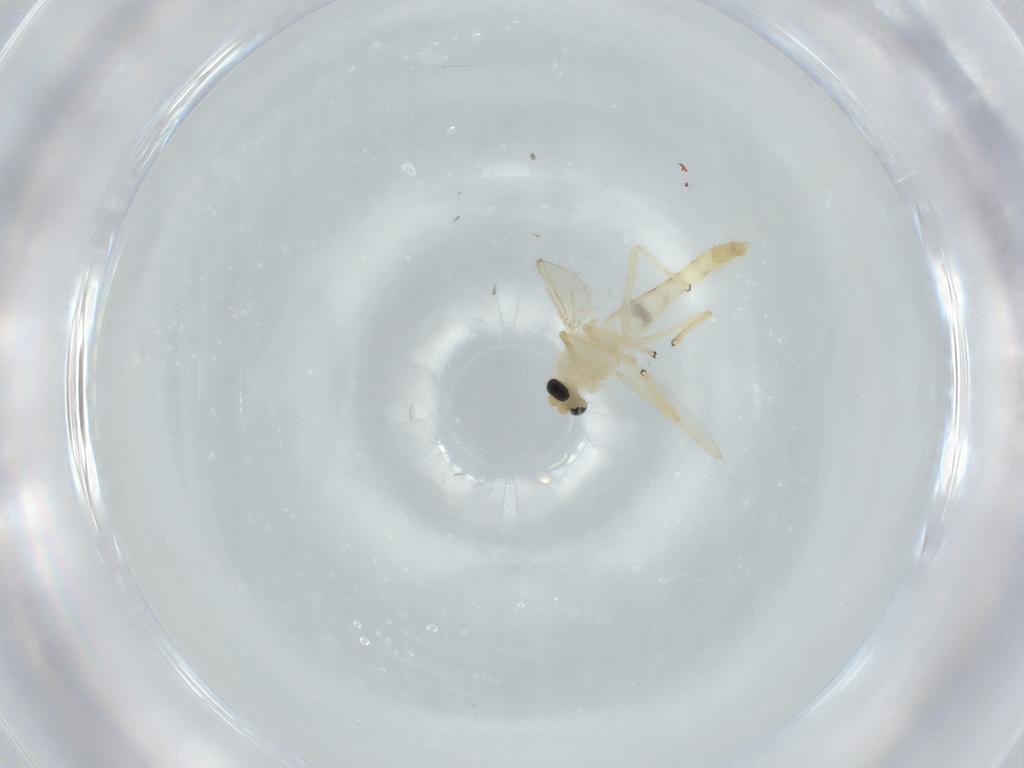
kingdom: Animalia
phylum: Arthropoda
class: Insecta
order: Diptera
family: Chironomidae
